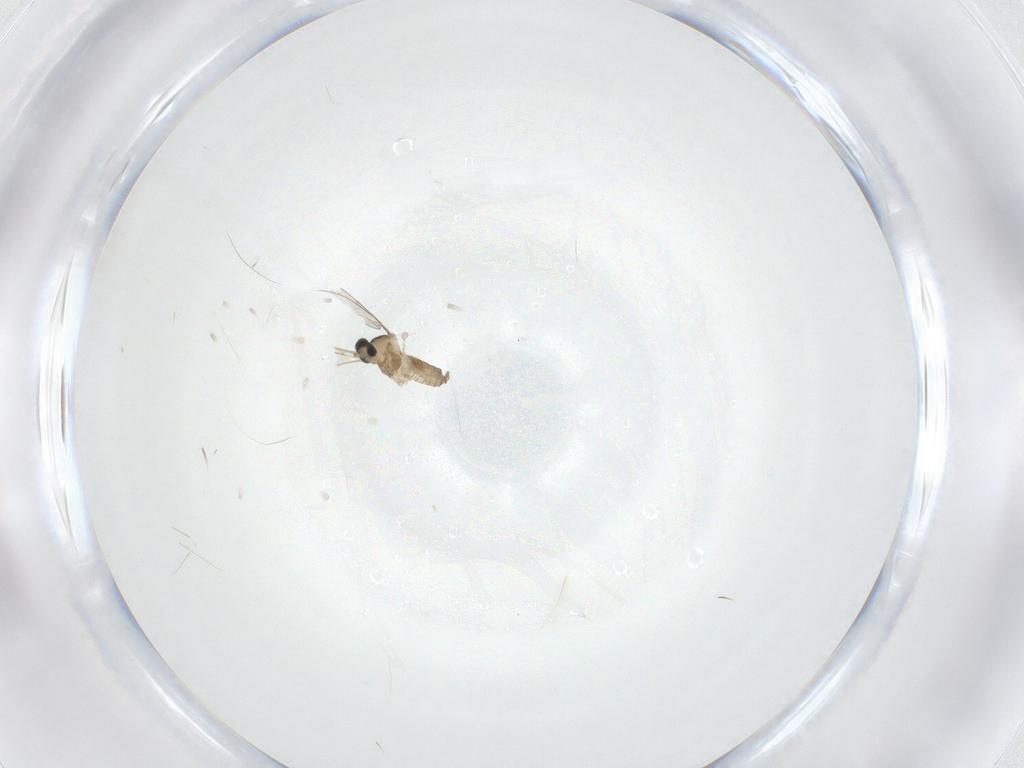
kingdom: Animalia
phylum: Arthropoda
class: Insecta
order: Diptera
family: Cecidomyiidae
